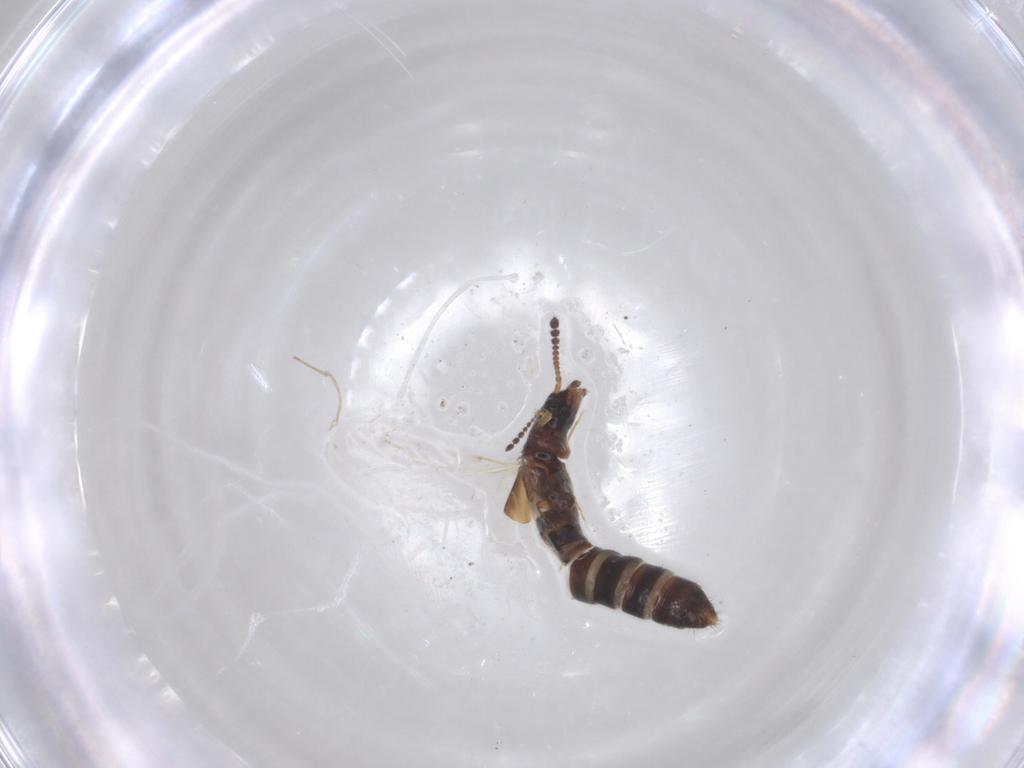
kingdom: Animalia
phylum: Arthropoda
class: Insecta
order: Coleoptera
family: Staphylinidae
